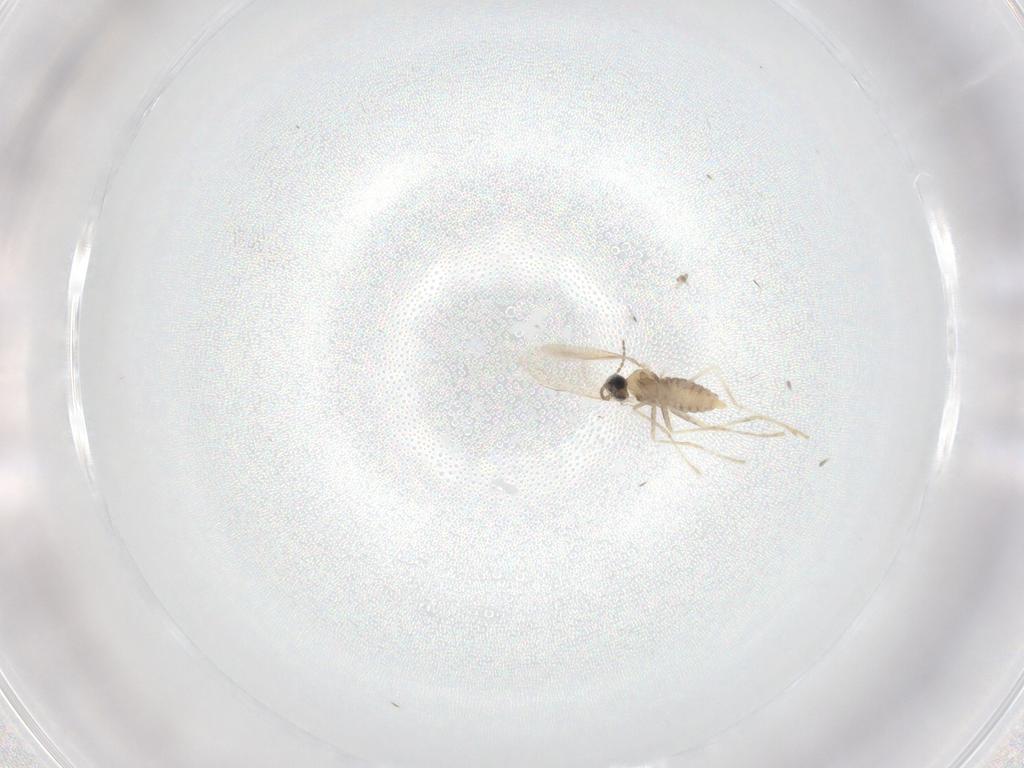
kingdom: Animalia
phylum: Arthropoda
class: Insecta
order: Diptera
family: Cecidomyiidae
